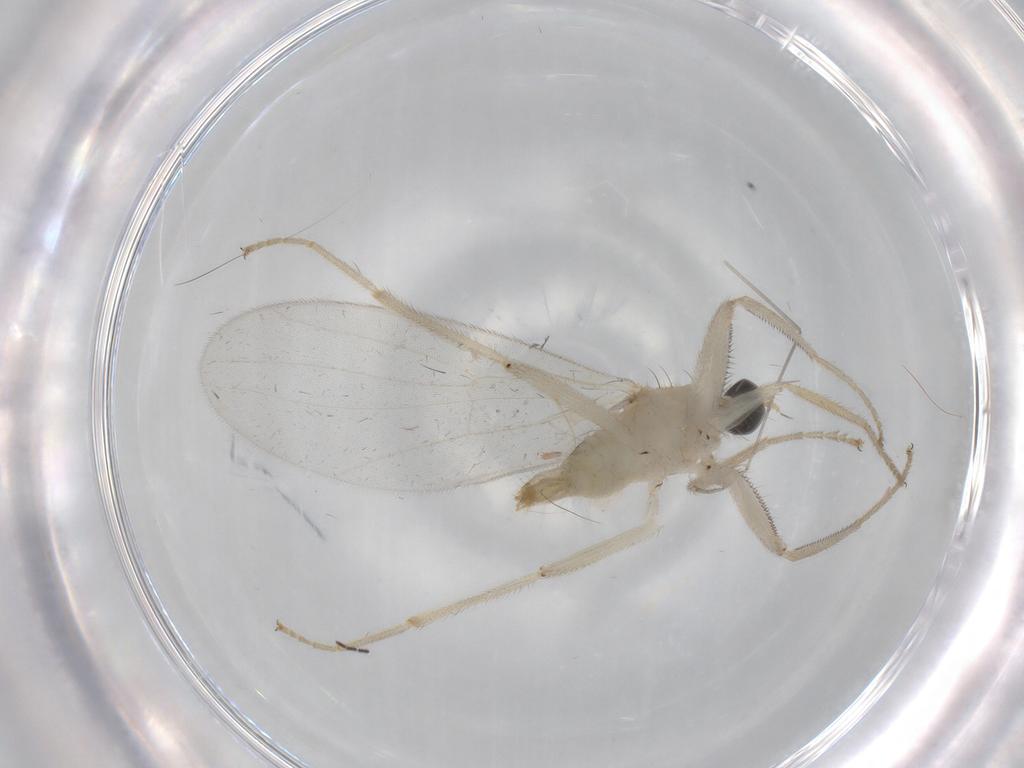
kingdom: Animalia
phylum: Arthropoda
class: Insecta
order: Diptera
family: Hybotidae
